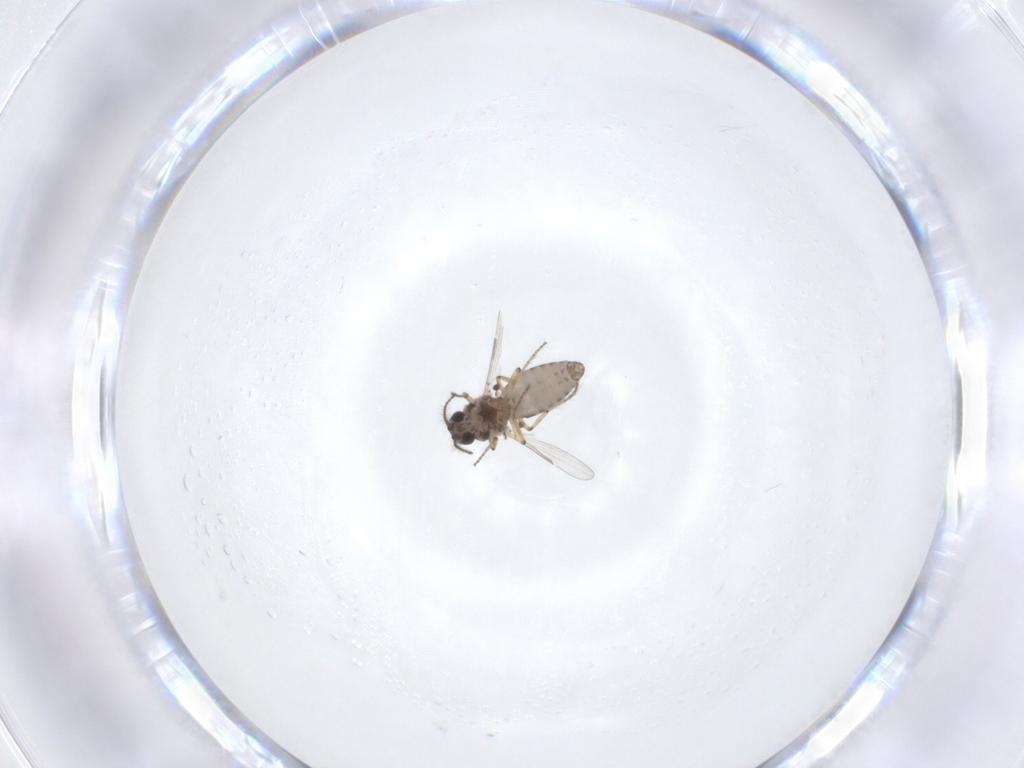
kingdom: Animalia
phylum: Arthropoda
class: Insecta
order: Diptera
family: Ceratopogonidae
